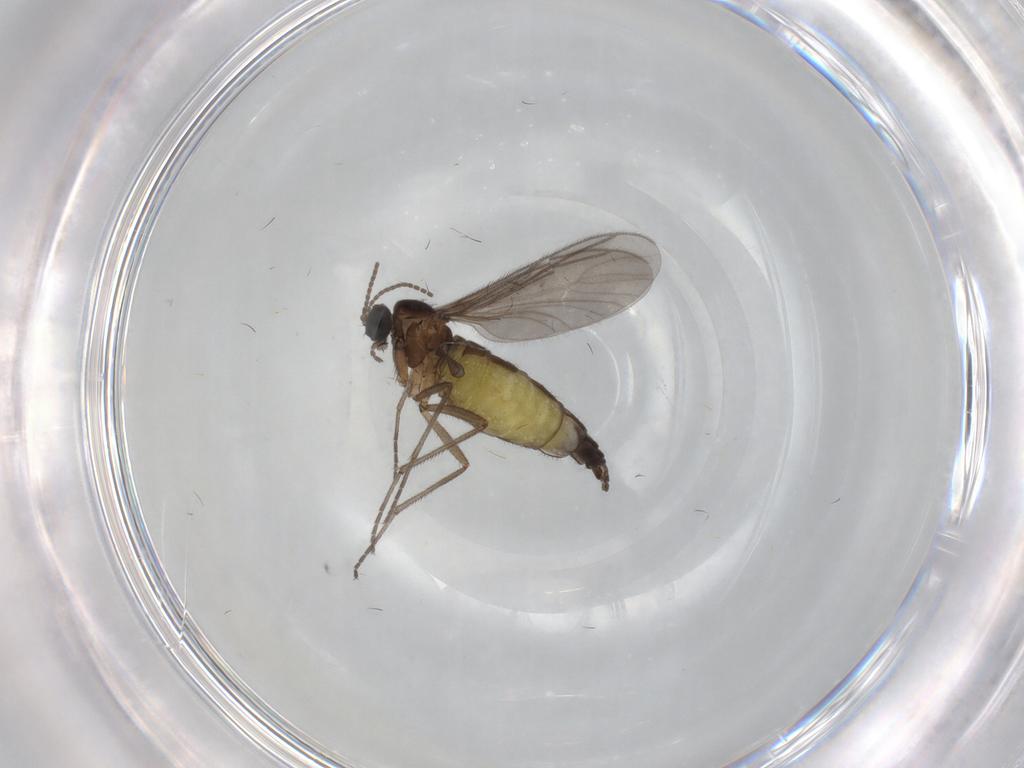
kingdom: Animalia
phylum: Arthropoda
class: Insecta
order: Diptera
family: Sciaridae
